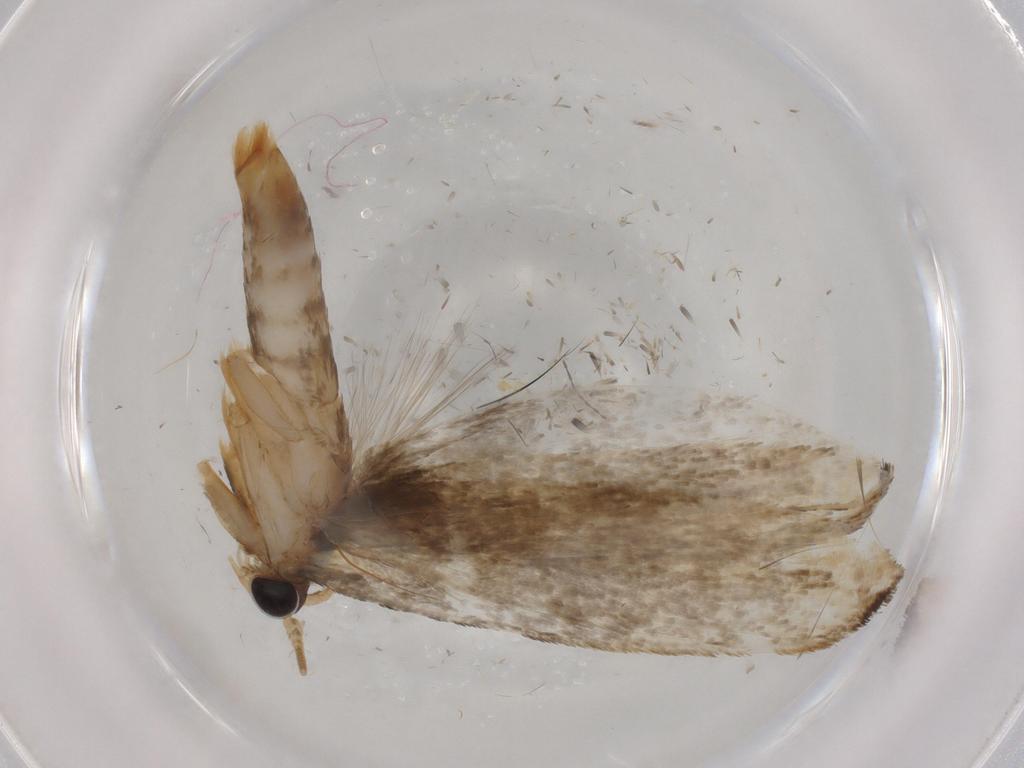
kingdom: Animalia
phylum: Arthropoda
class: Insecta
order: Lepidoptera
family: Tineidae
